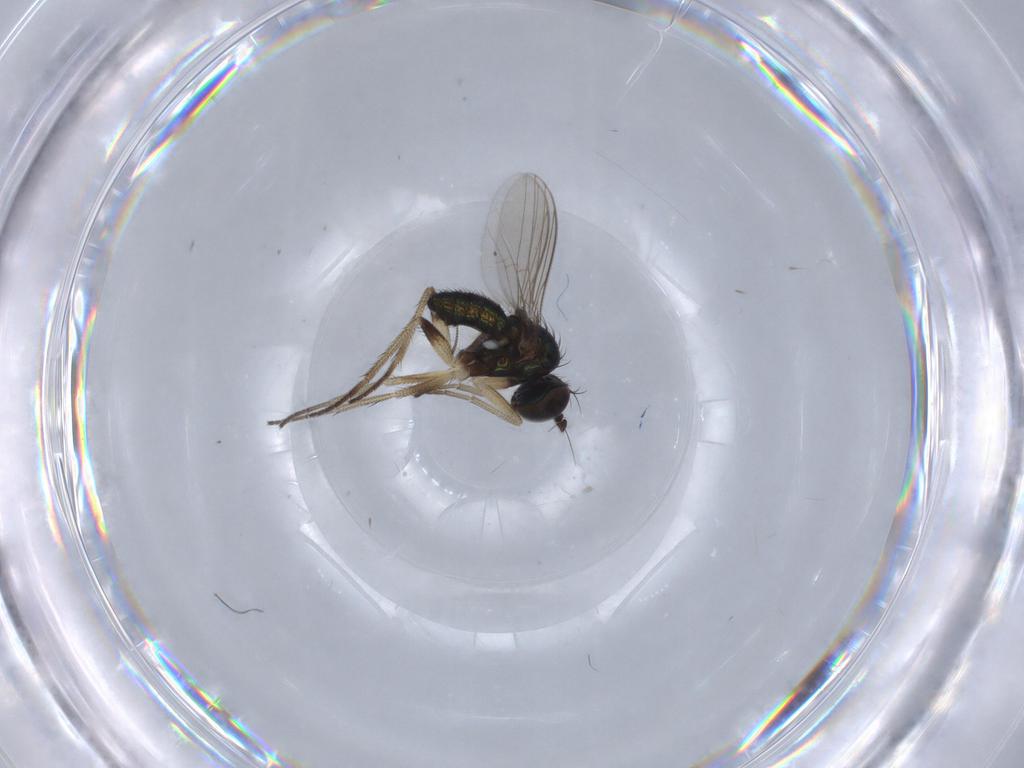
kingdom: Animalia
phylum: Arthropoda
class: Insecta
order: Diptera
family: Chironomidae
